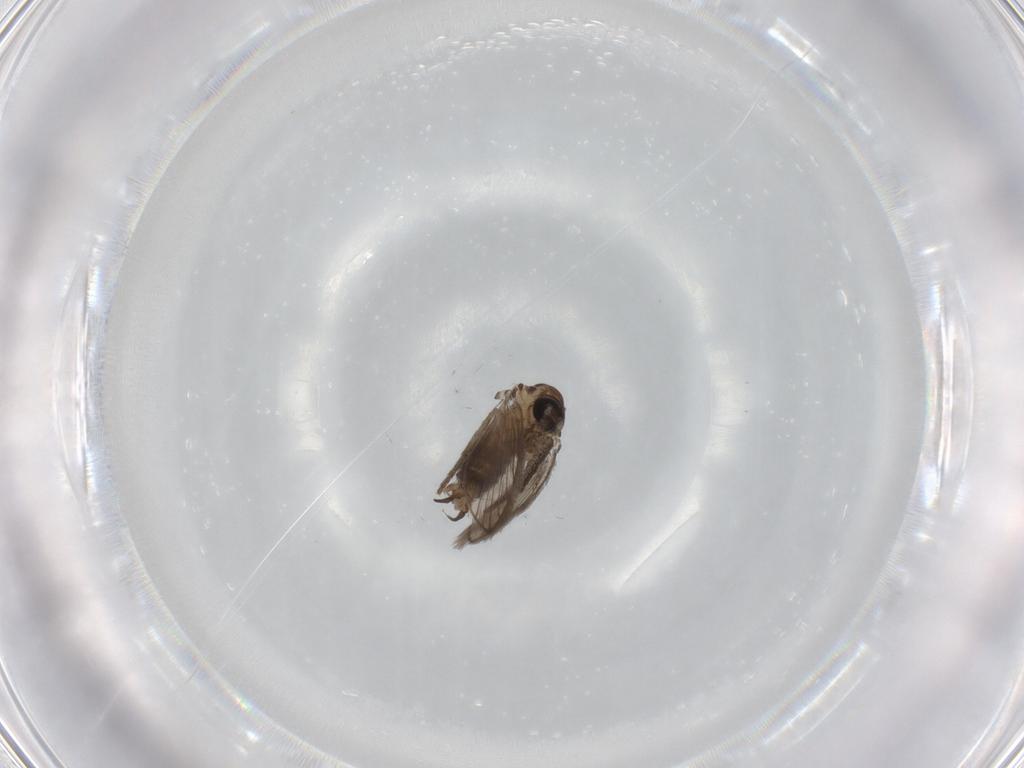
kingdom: Animalia
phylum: Arthropoda
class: Insecta
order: Diptera
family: Psychodidae
